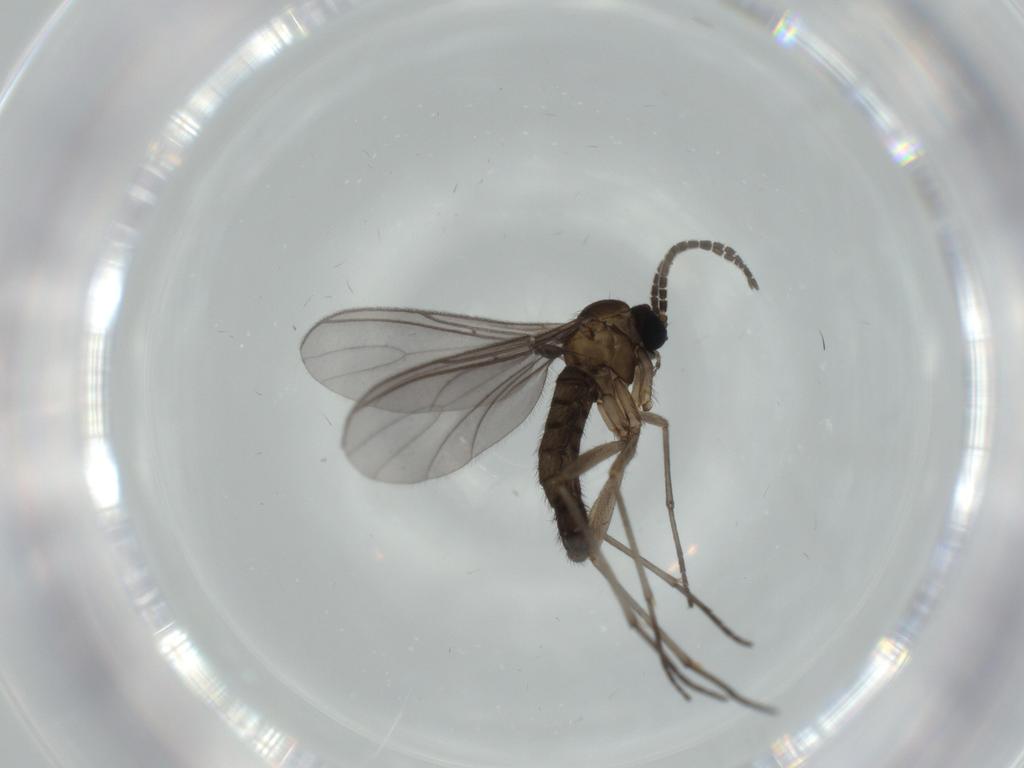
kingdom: Animalia
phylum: Arthropoda
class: Insecta
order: Diptera
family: Sciaridae
